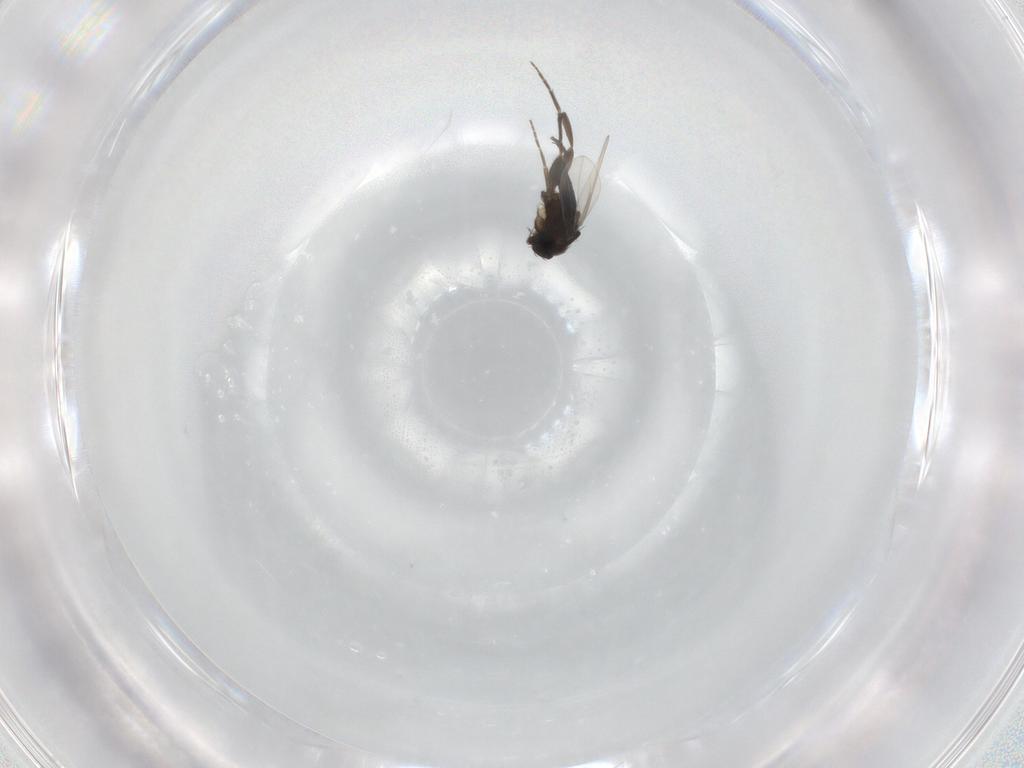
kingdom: Animalia
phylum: Arthropoda
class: Insecta
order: Diptera
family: Phoridae
